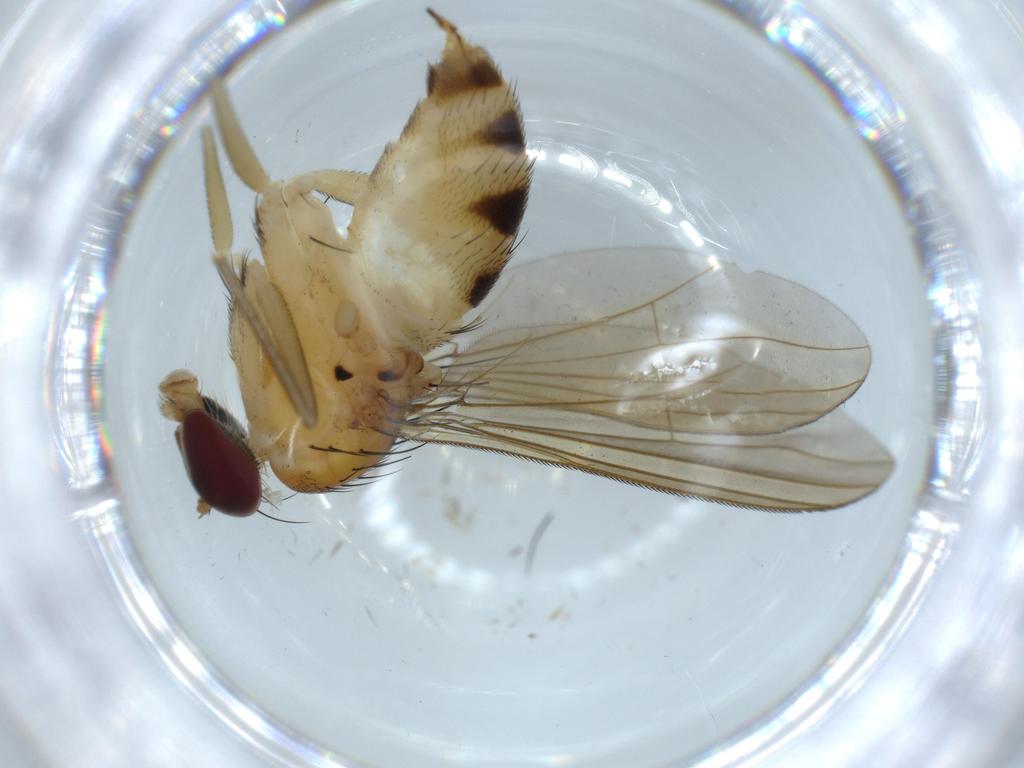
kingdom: Animalia
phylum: Arthropoda
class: Insecta
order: Diptera
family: Dolichopodidae
